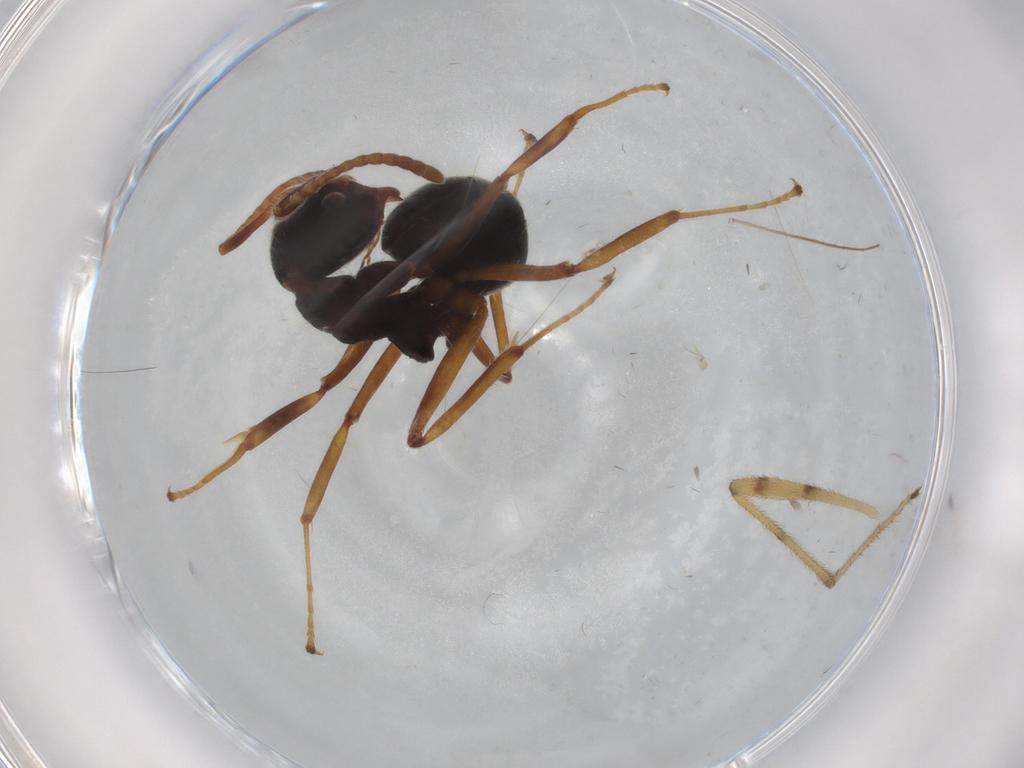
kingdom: Animalia
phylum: Arthropoda
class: Insecta
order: Hymenoptera
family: Formicidae
